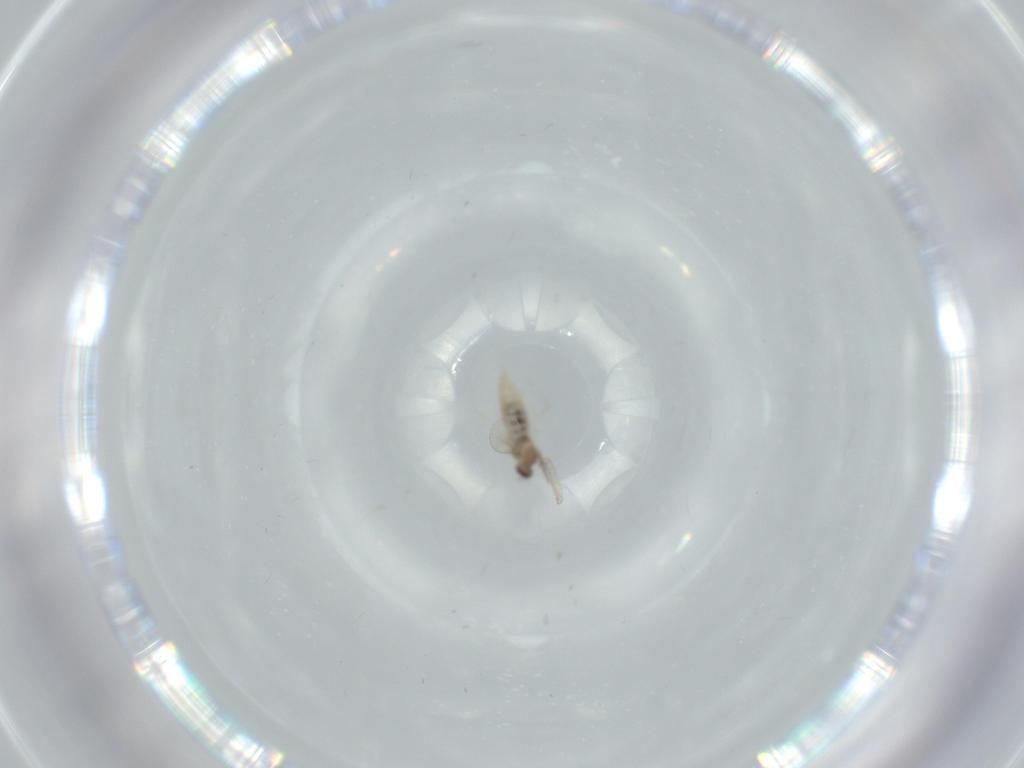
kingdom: Animalia
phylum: Arthropoda
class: Insecta
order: Diptera
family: Cecidomyiidae
